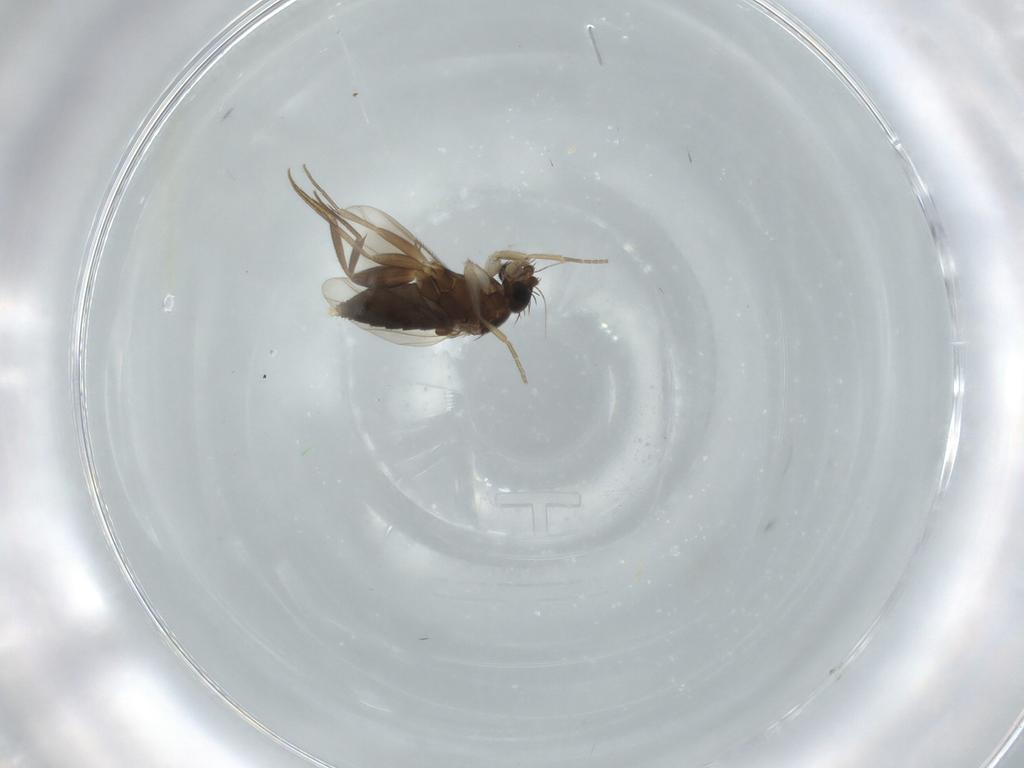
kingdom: Animalia
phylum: Arthropoda
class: Insecta
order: Diptera
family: Phoridae
